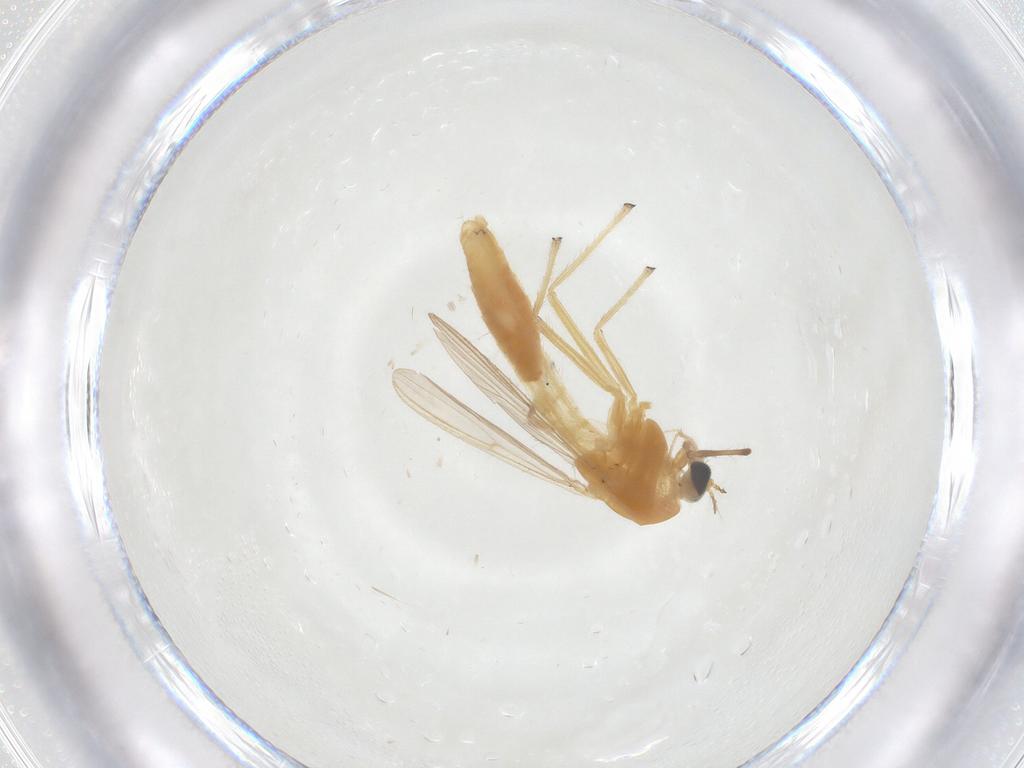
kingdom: Animalia
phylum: Arthropoda
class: Insecta
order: Diptera
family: Chironomidae
